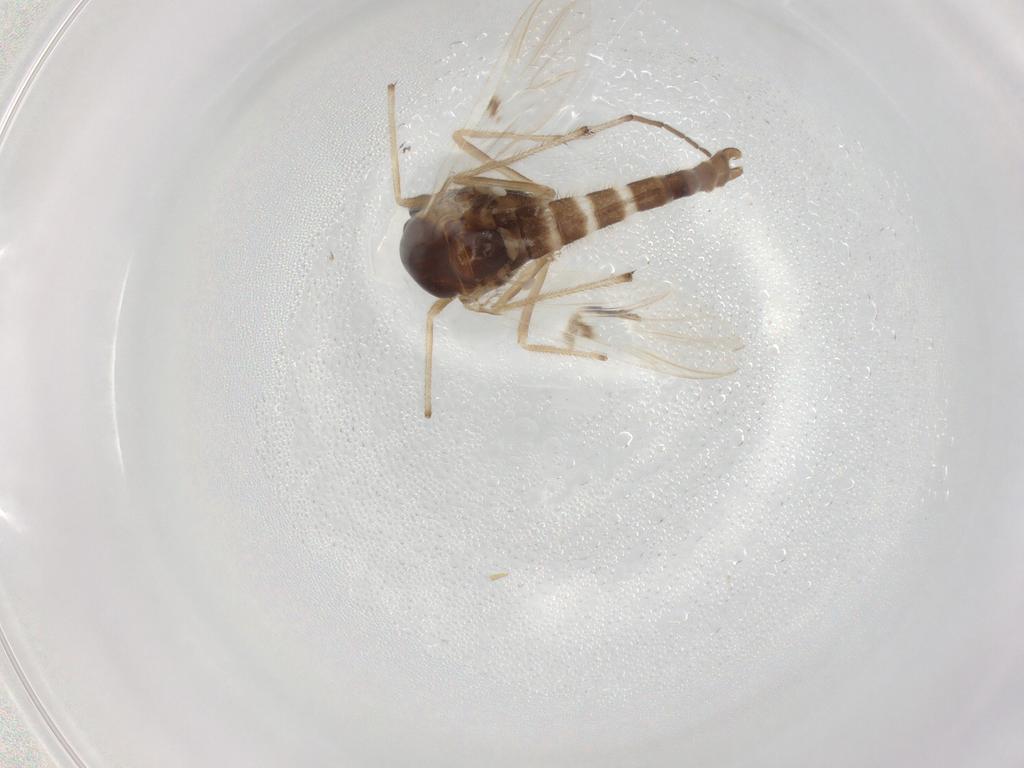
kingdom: Animalia
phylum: Arthropoda
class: Insecta
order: Diptera
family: Chironomidae
